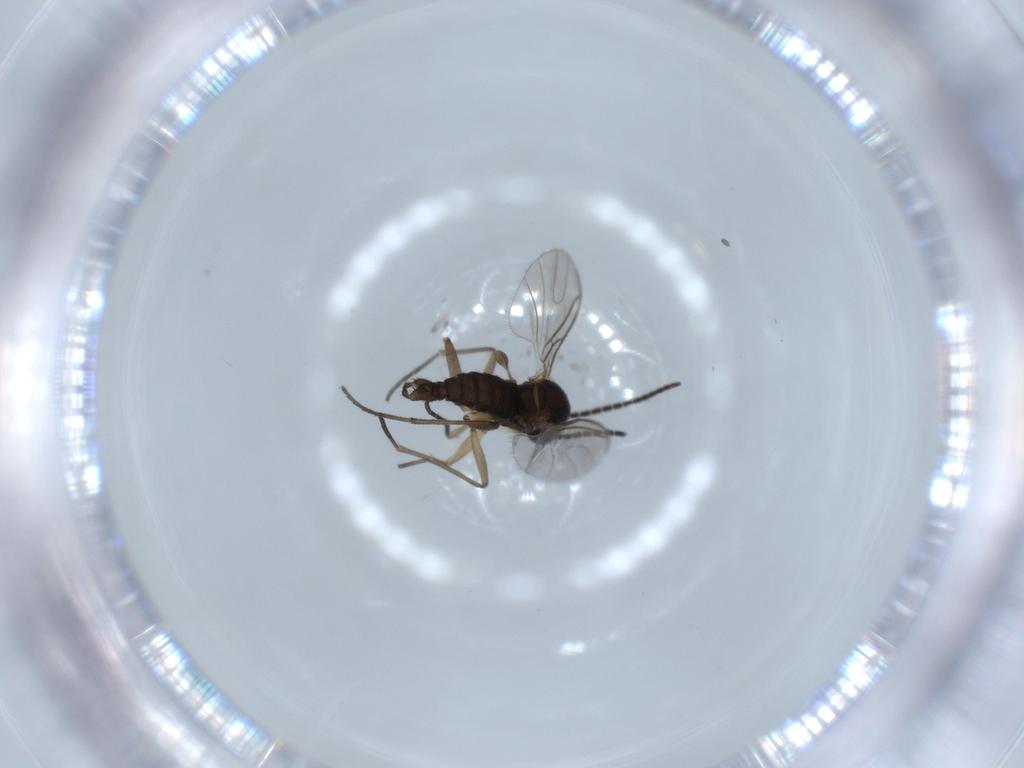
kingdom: Animalia
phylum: Arthropoda
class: Insecta
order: Diptera
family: Sciaridae
